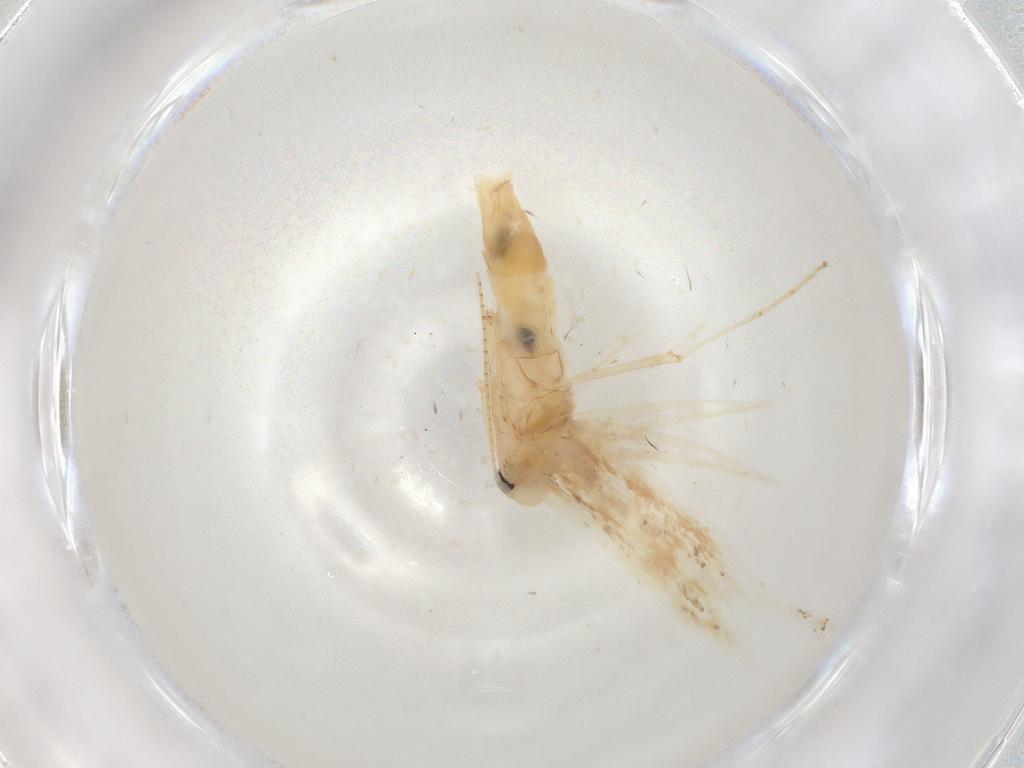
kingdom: Animalia
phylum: Arthropoda
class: Insecta
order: Lepidoptera
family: Gracillariidae
